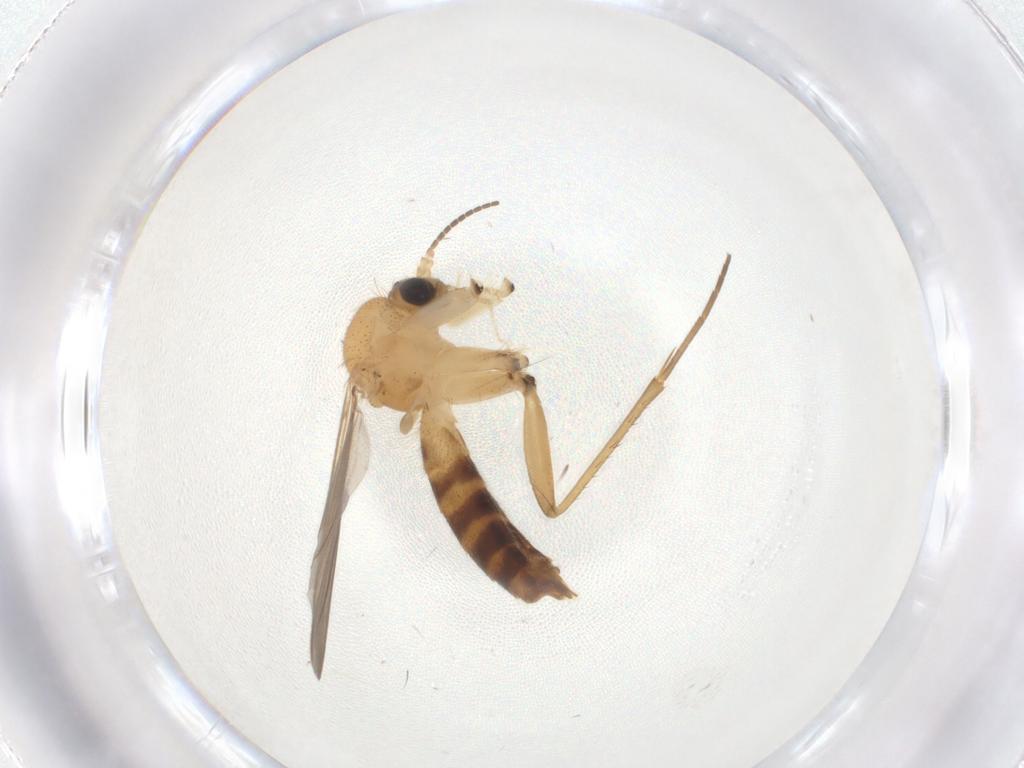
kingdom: Animalia
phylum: Arthropoda
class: Insecta
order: Diptera
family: Mycetophilidae
